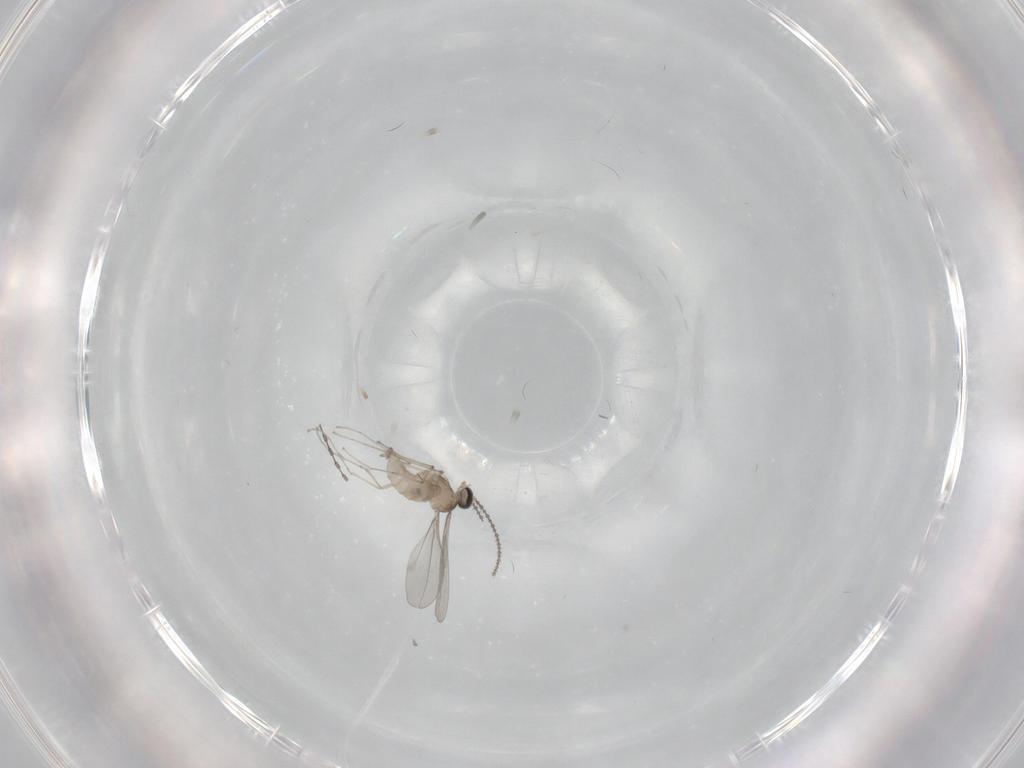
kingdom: Animalia
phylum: Arthropoda
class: Insecta
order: Diptera
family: Cecidomyiidae
